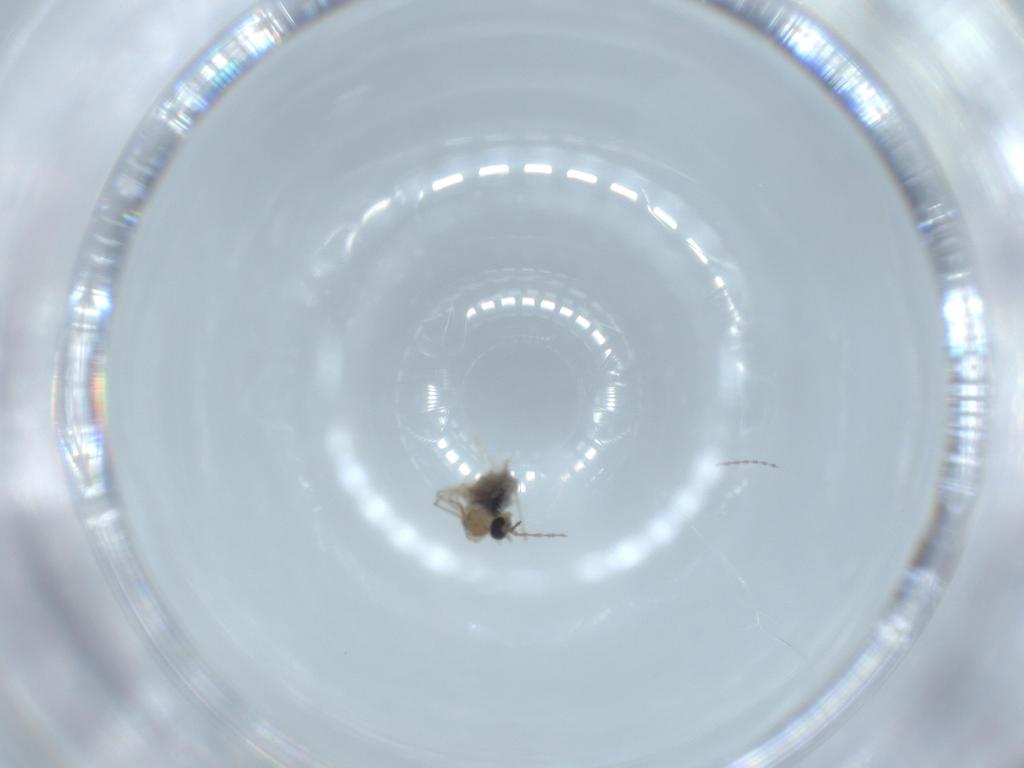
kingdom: Animalia
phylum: Arthropoda
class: Insecta
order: Diptera
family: Cecidomyiidae
